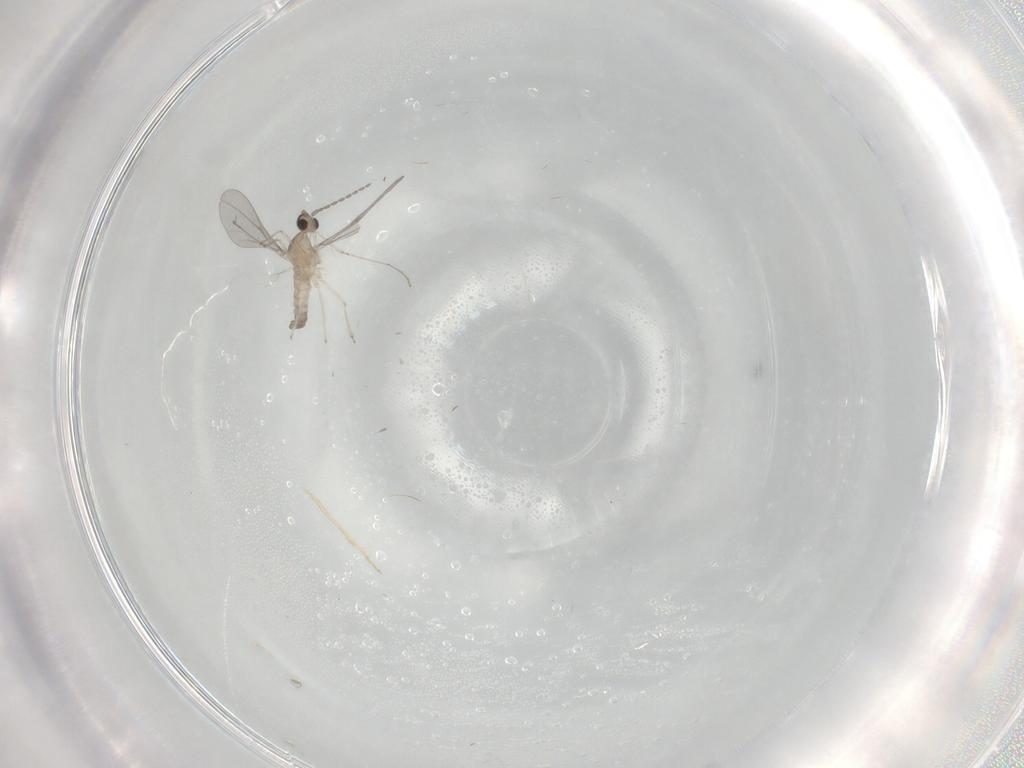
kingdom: Animalia
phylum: Arthropoda
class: Insecta
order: Diptera
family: Cecidomyiidae
